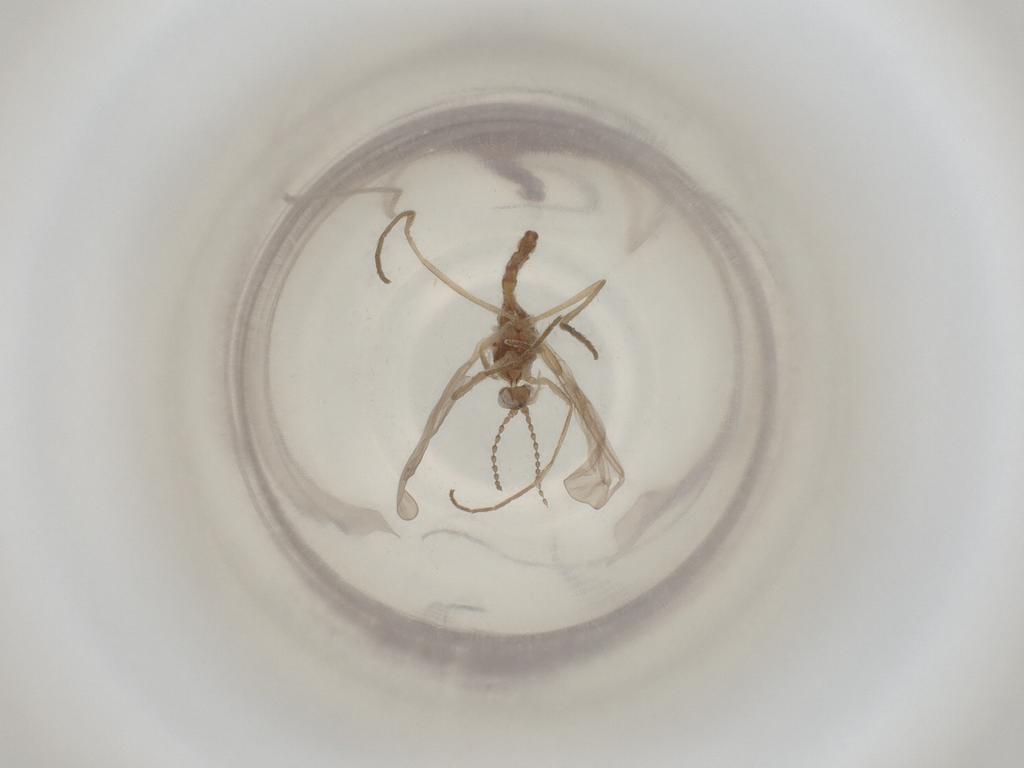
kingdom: Animalia
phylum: Arthropoda
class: Insecta
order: Diptera
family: Cecidomyiidae
